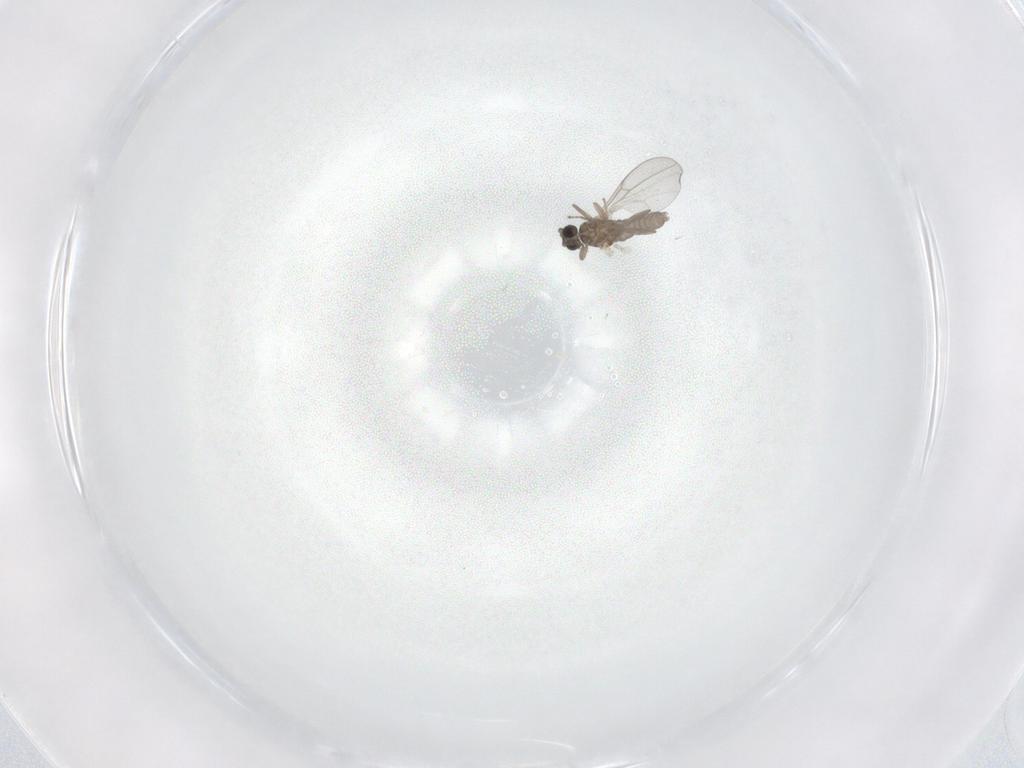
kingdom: Animalia
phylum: Arthropoda
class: Insecta
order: Diptera
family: Cecidomyiidae
